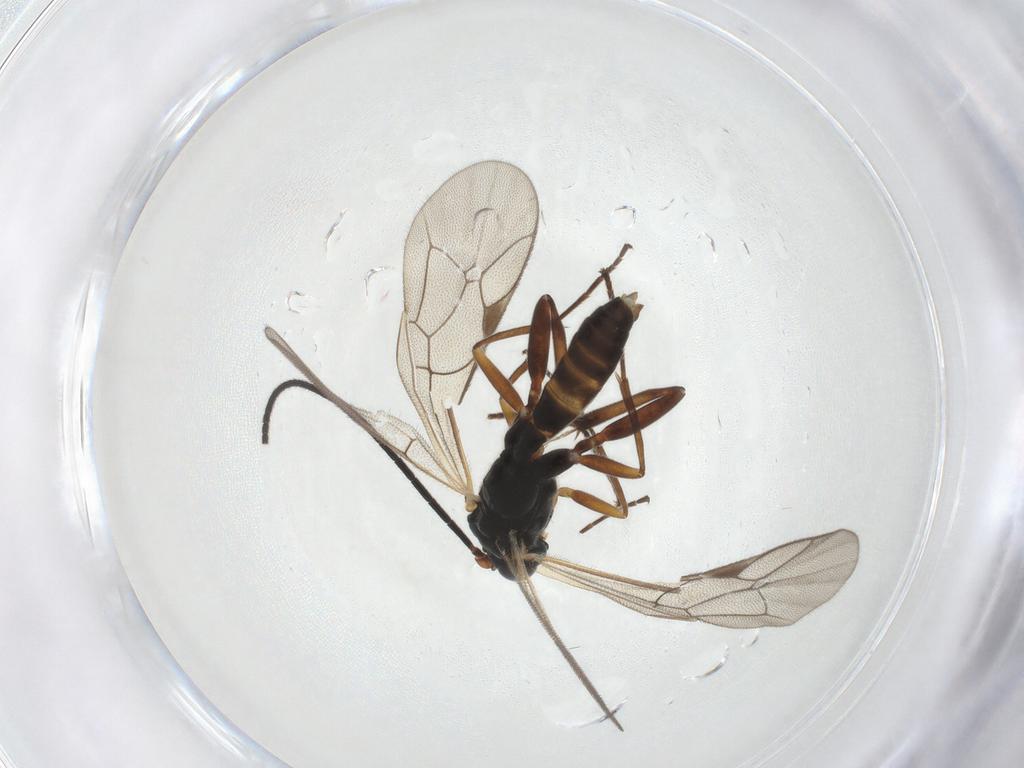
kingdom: Animalia
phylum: Arthropoda
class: Insecta
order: Hymenoptera
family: Ichneumonidae
